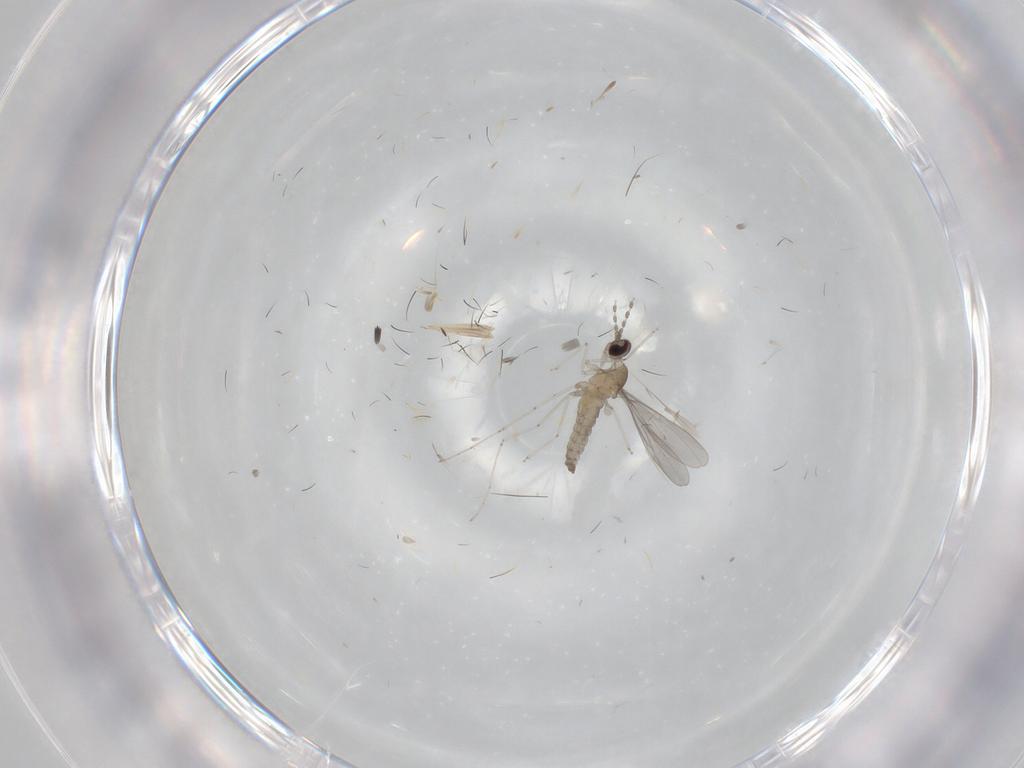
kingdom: Animalia
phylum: Arthropoda
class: Insecta
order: Diptera
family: Cecidomyiidae
